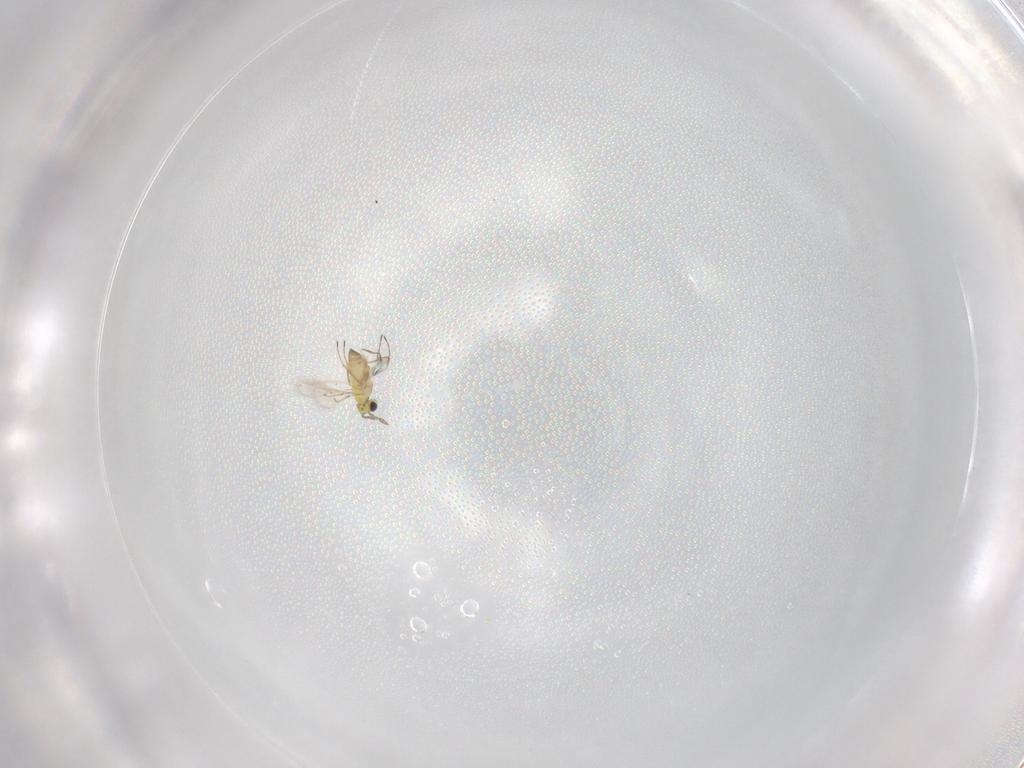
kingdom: Animalia
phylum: Arthropoda
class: Insecta
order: Hymenoptera
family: Trichogrammatidae
